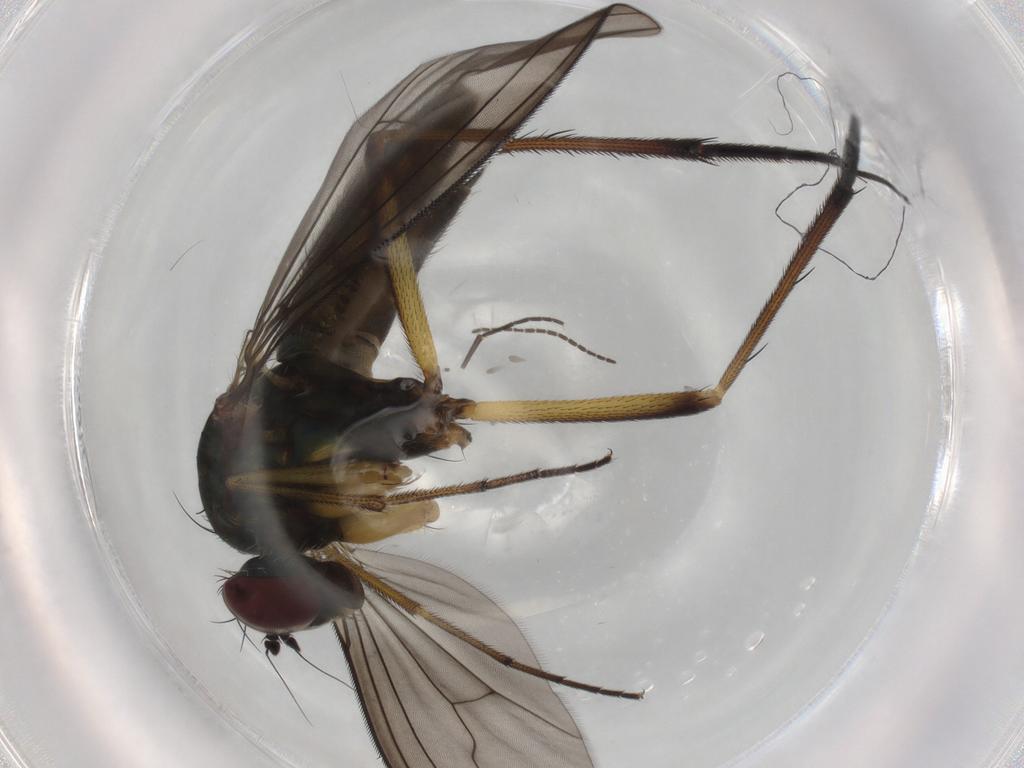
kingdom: Animalia
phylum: Arthropoda
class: Insecta
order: Diptera
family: Dolichopodidae
